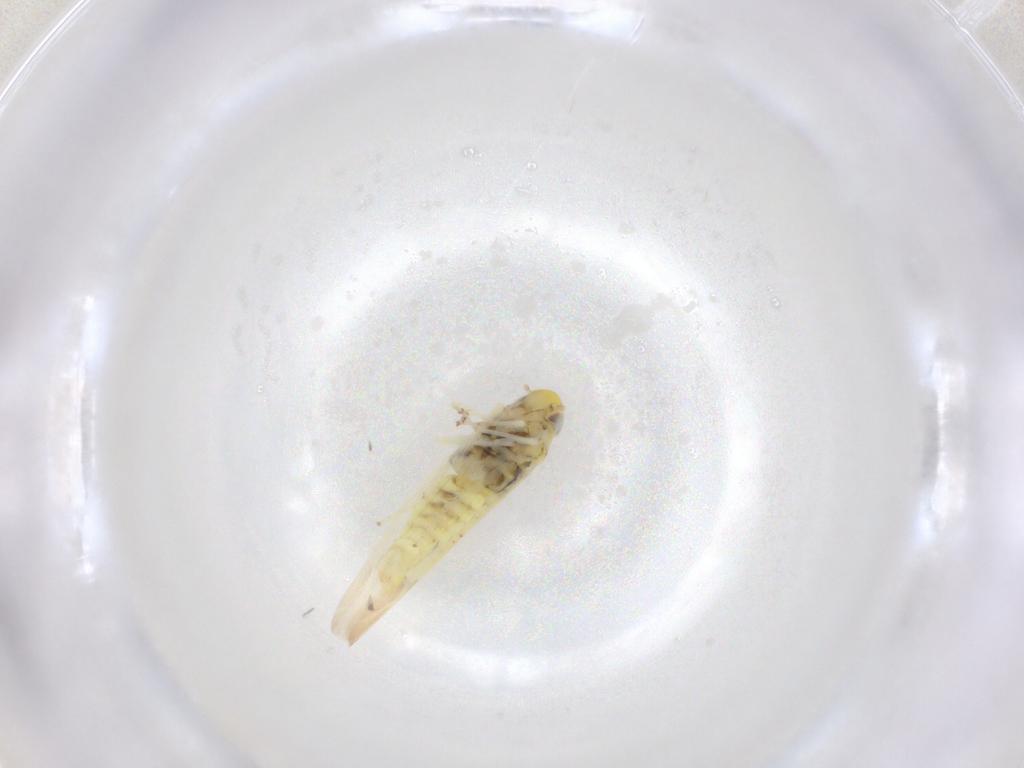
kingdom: Animalia
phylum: Arthropoda
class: Insecta
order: Hemiptera
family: Cicadellidae
